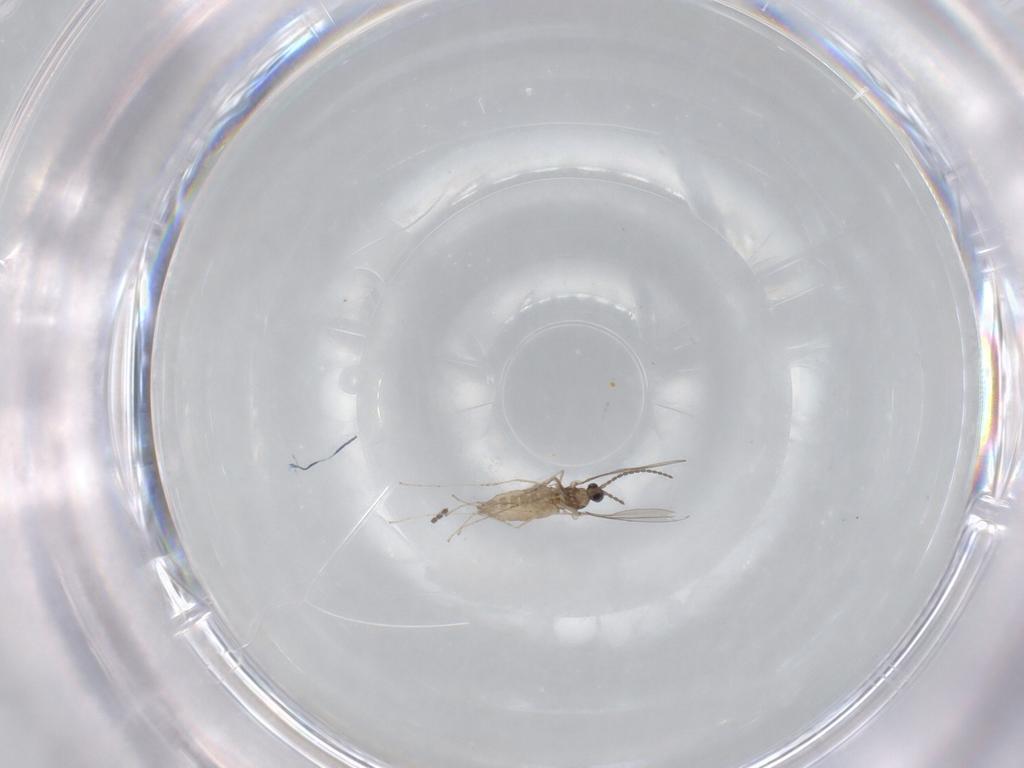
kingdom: Animalia
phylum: Arthropoda
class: Insecta
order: Diptera
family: Cecidomyiidae
